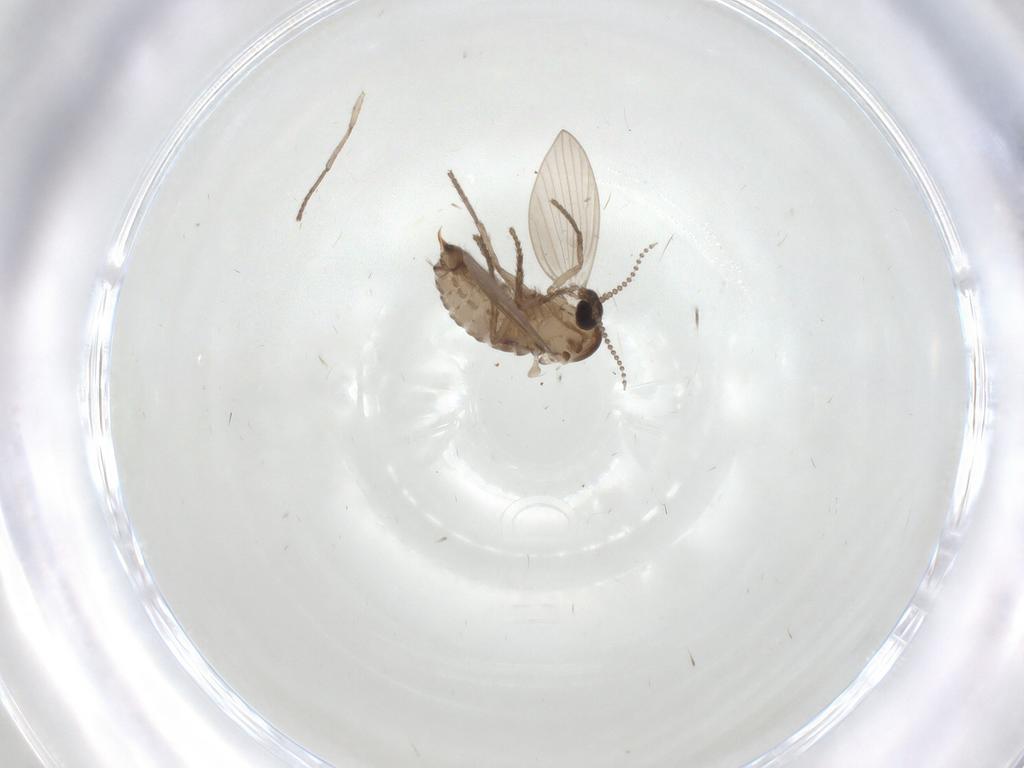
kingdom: Animalia
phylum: Arthropoda
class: Insecta
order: Diptera
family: Psychodidae
